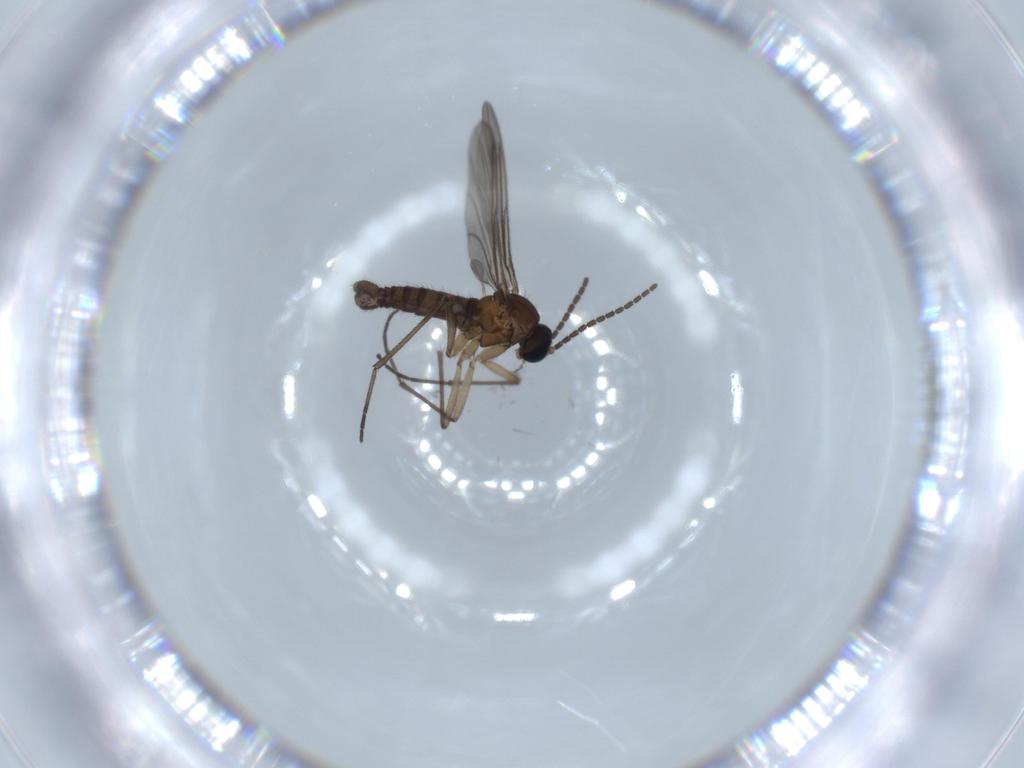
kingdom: Animalia
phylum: Arthropoda
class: Insecta
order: Diptera
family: Sciaridae
